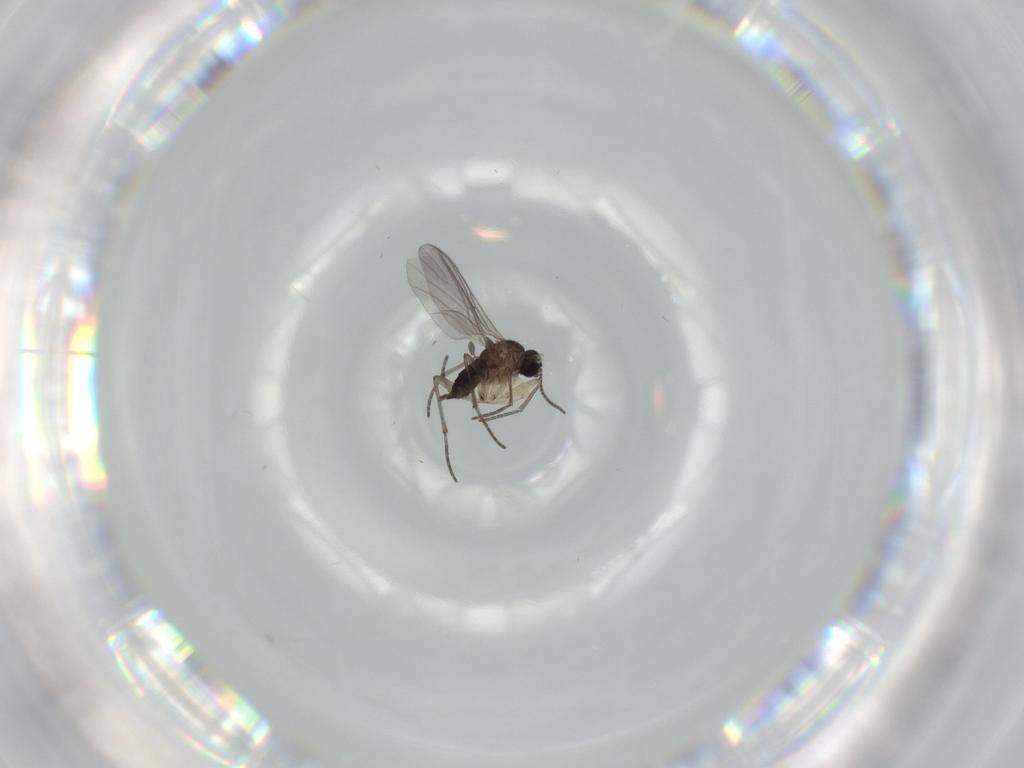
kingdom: Animalia
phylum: Arthropoda
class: Insecta
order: Diptera
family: Sciaridae
